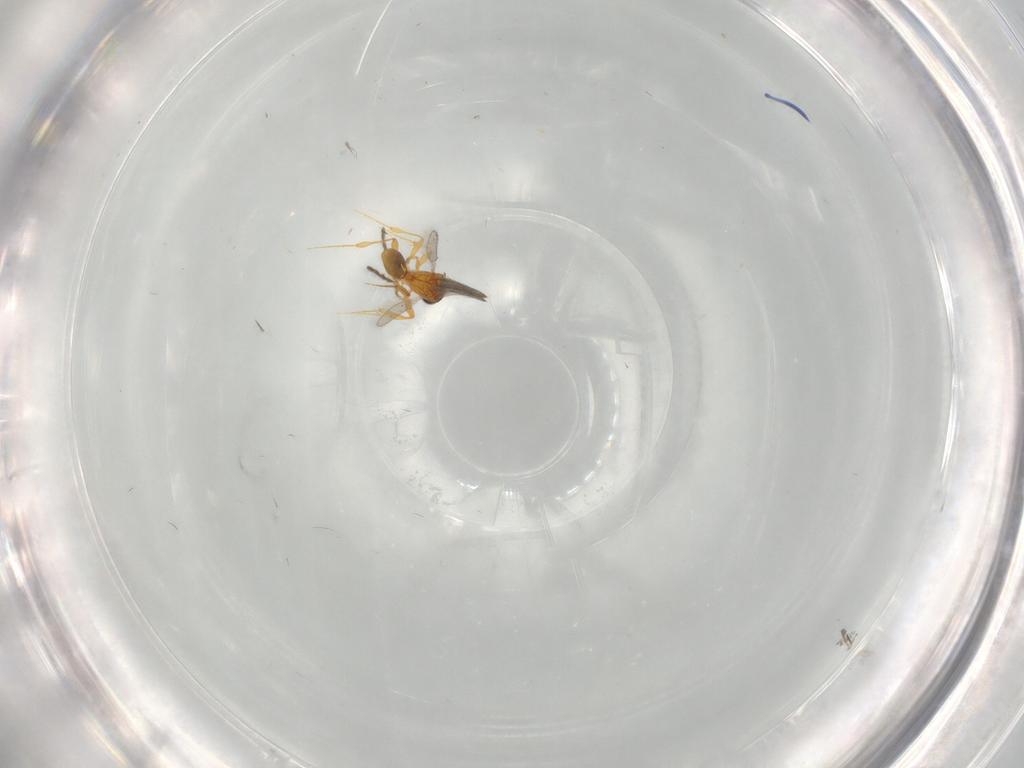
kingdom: Animalia
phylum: Arthropoda
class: Insecta
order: Hymenoptera
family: Platygastridae
